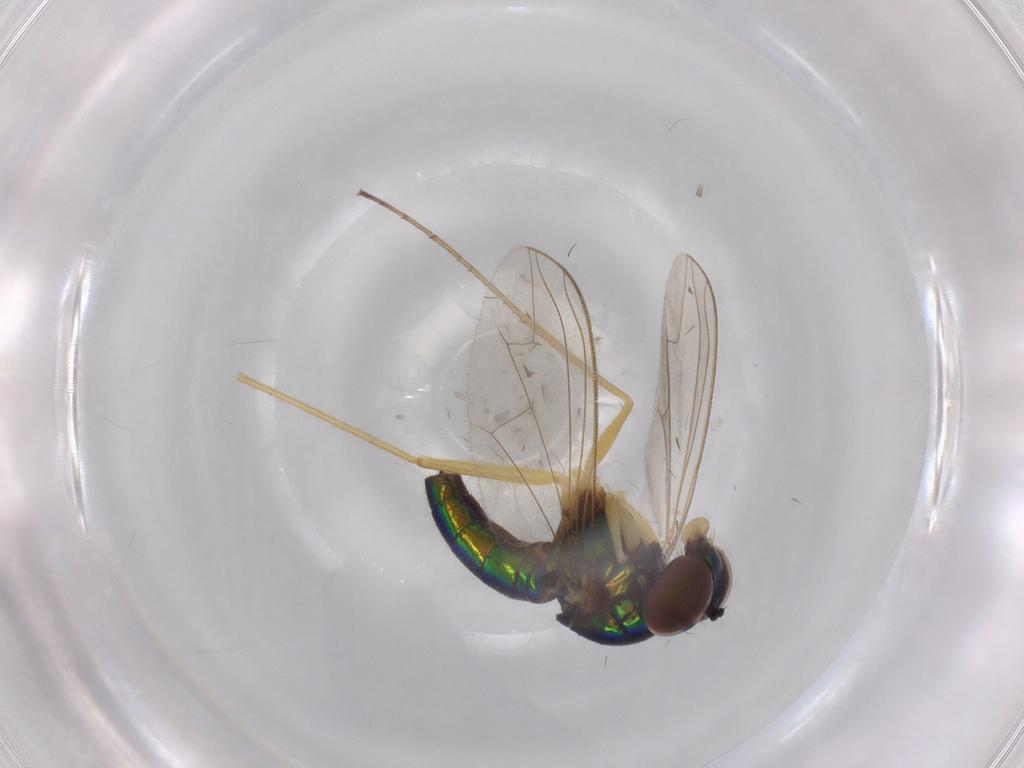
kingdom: Animalia
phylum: Arthropoda
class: Insecta
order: Diptera
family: Dolichopodidae
